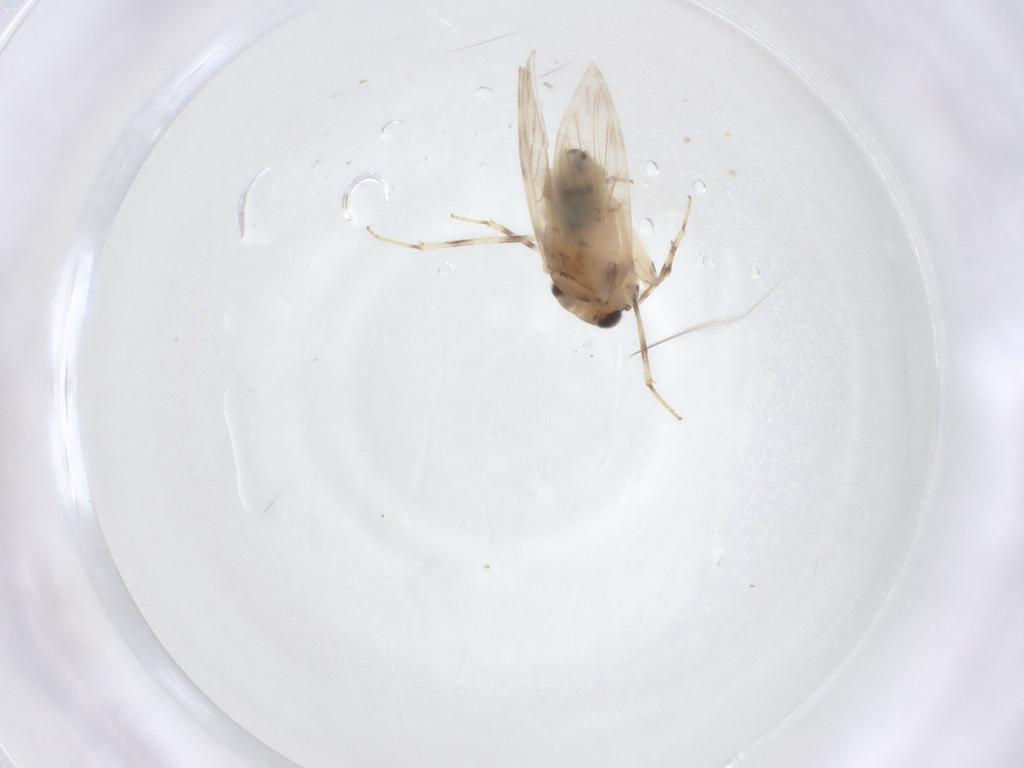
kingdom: Animalia
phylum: Arthropoda
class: Insecta
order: Psocodea
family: Lepidopsocidae
